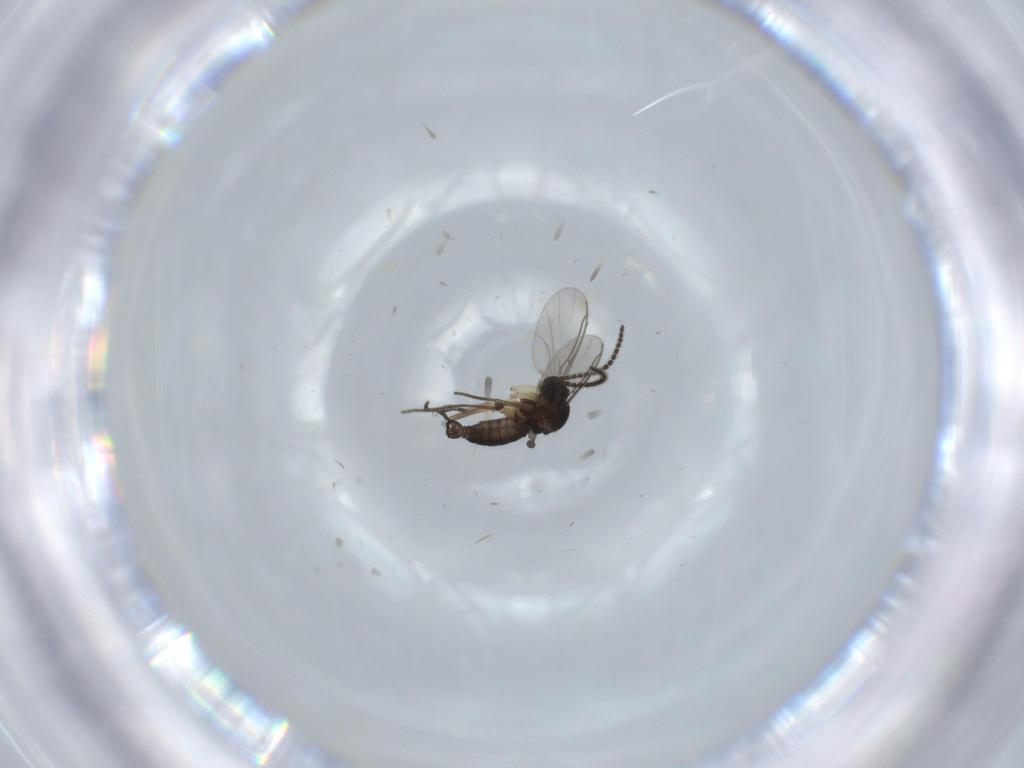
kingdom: Animalia
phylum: Arthropoda
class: Insecta
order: Diptera
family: Sciaridae
